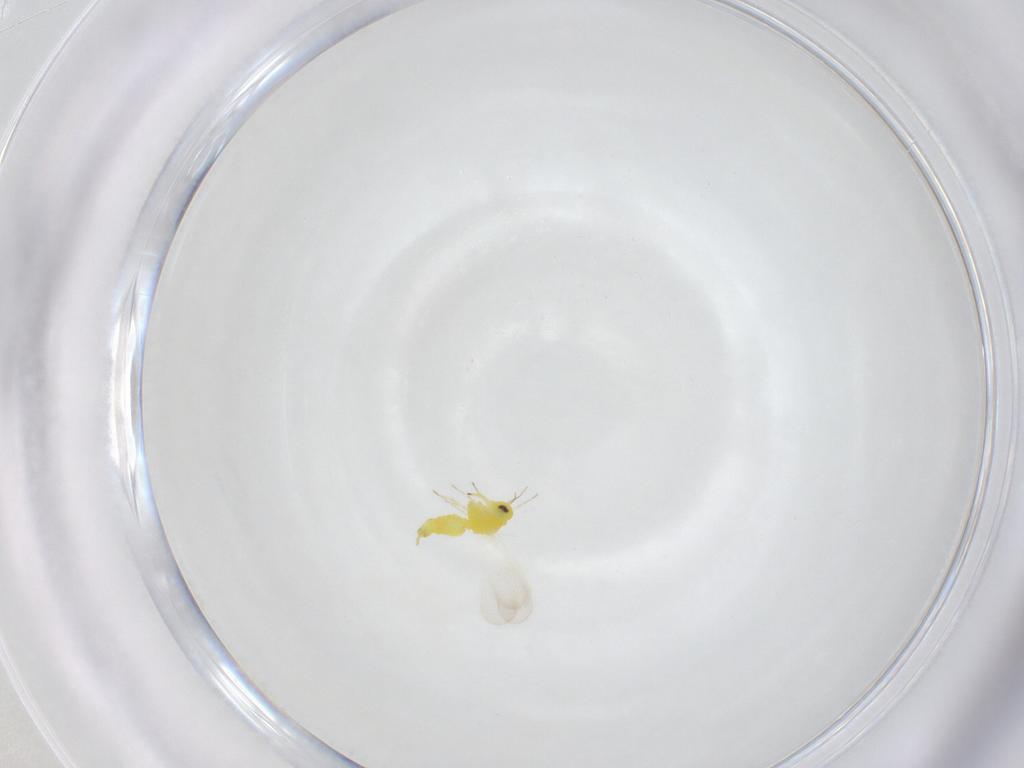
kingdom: Animalia
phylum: Arthropoda
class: Insecta
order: Hemiptera
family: Aleyrodidae
